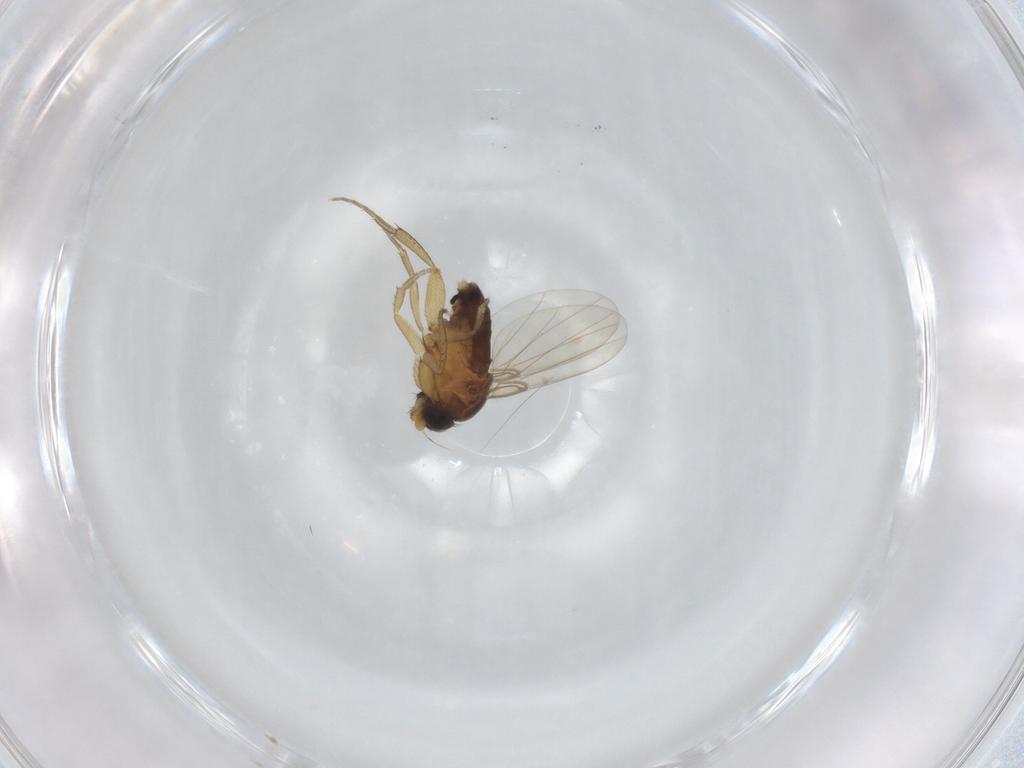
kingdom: Animalia
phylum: Arthropoda
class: Insecta
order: Diptera
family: Phoridae
